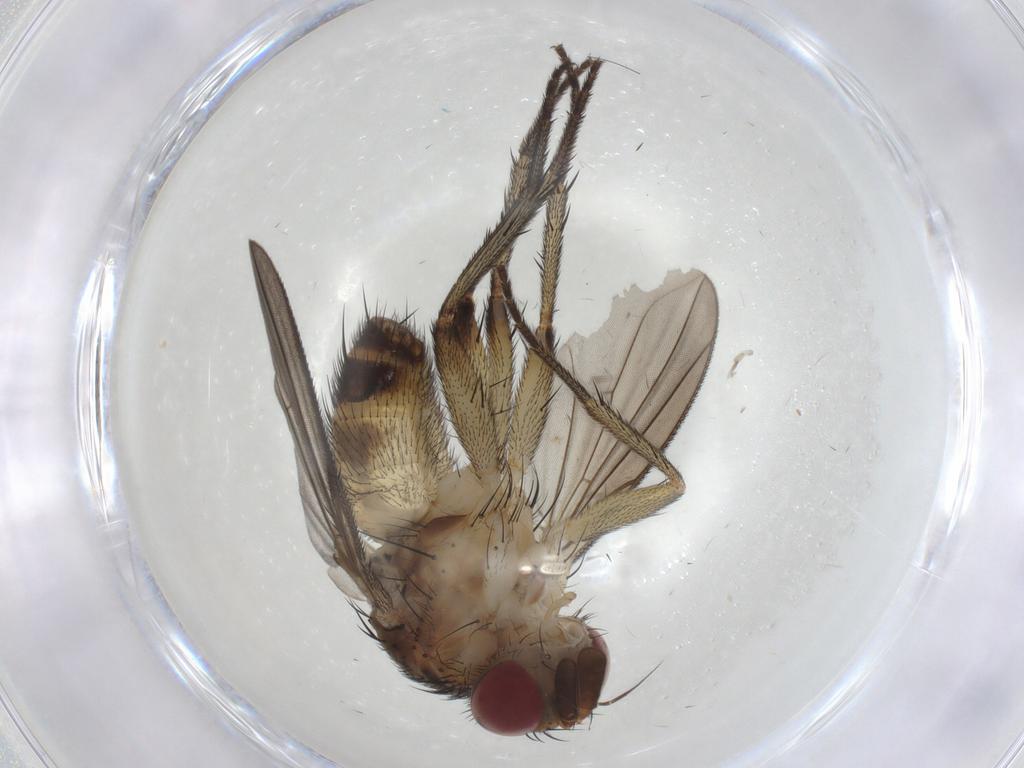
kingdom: Animalia
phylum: Arthropoda
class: Insecta
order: Diptera
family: Tachinidae
